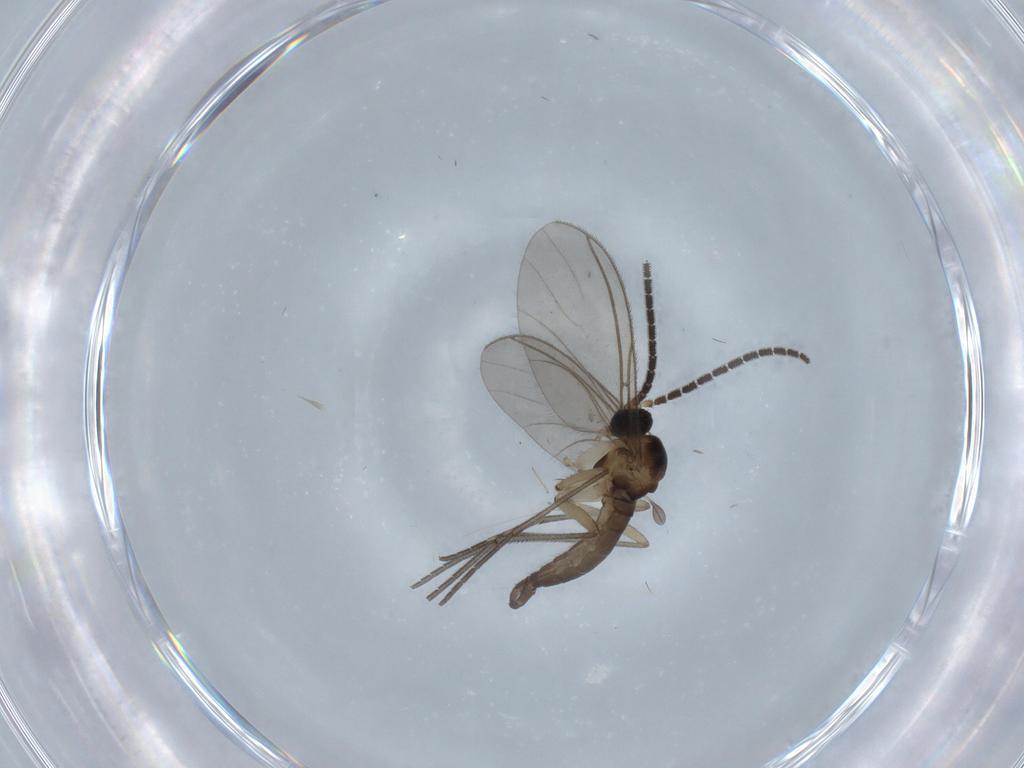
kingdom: Animalia
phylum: Arthropoda
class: Insecta
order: Diptera
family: Sciaridae
